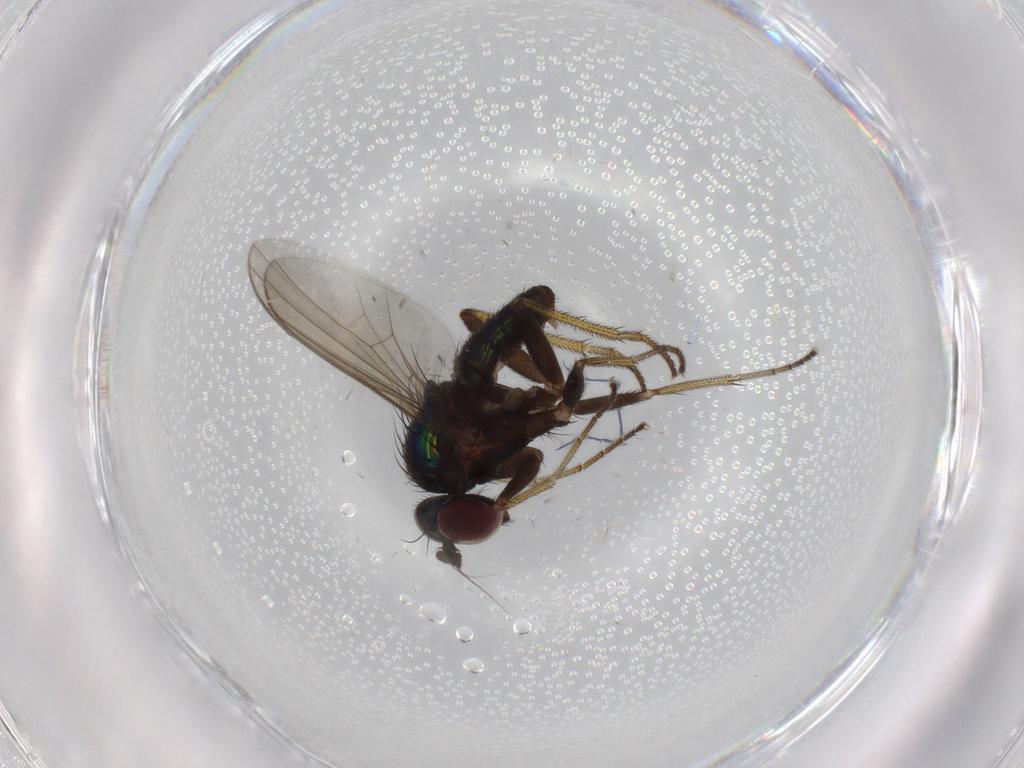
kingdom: Animalia
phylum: Arthropoda
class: Insecta
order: Diptera
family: Dolichopodidae
